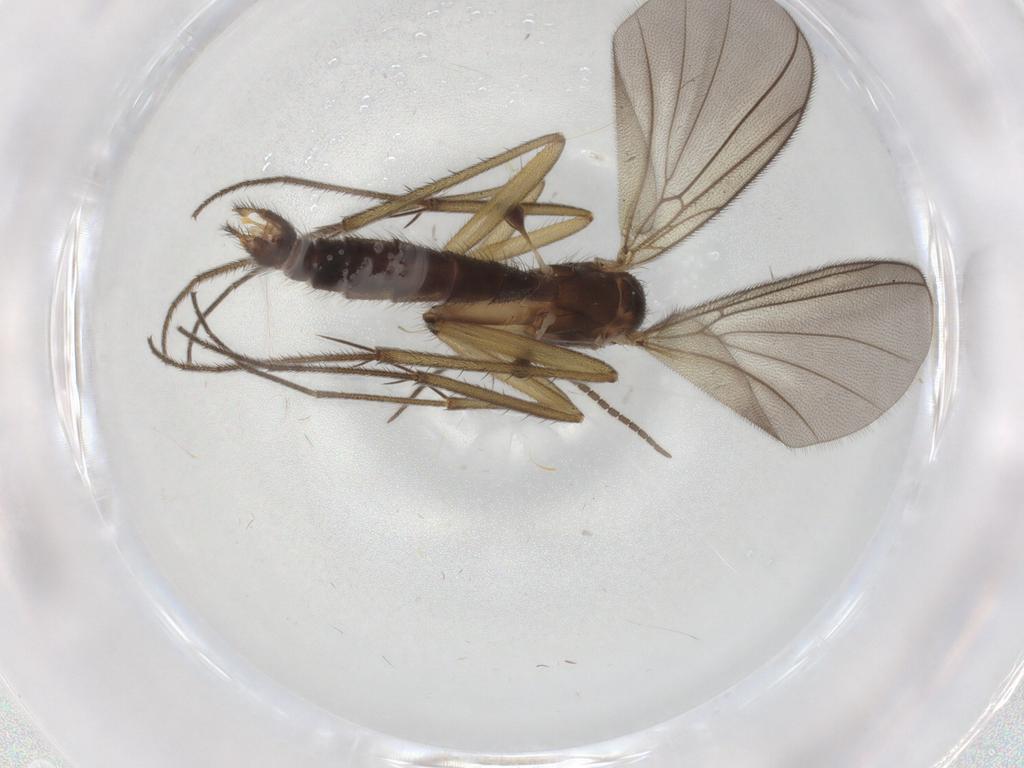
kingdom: Animalia
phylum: Arthropoda
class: Insecta
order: Diptera
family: Mycetophilidae
